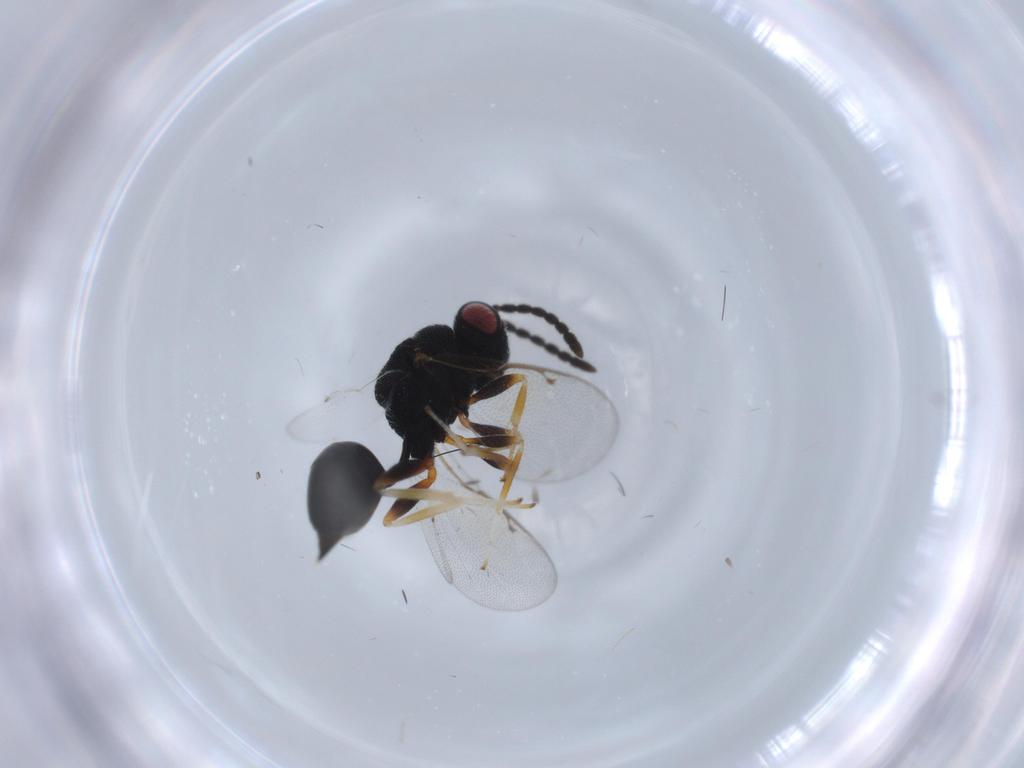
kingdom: Animalia
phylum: Arthropoda
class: Insecta
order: Hymenoptera
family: Eurytomidae
